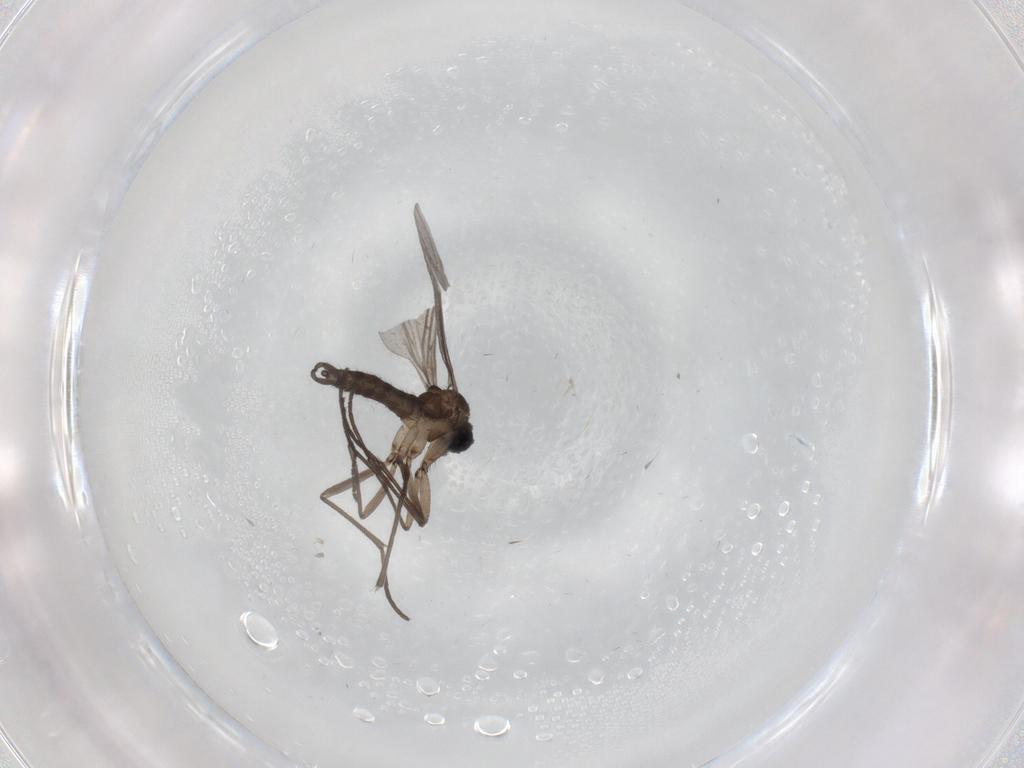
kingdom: Animalia
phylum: Arthropoda
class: Insecta
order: Diptera
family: Sciaridae
